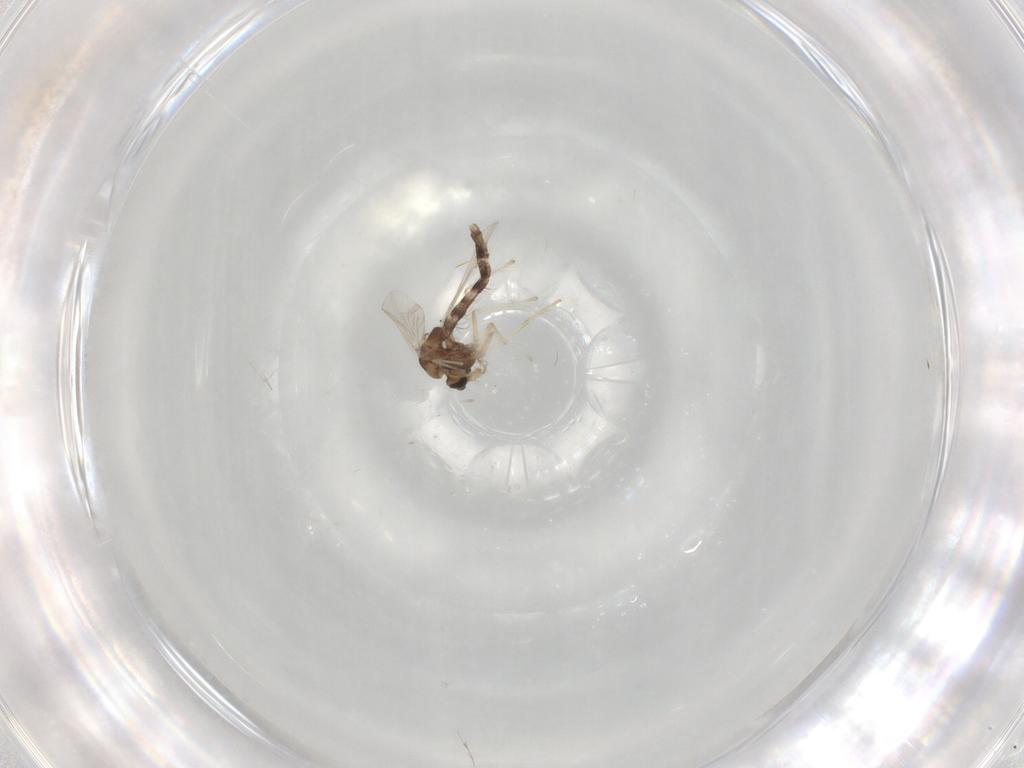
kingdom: Animalia
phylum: Arthropoda
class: Insecta
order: Diptera
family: Chironomidae
